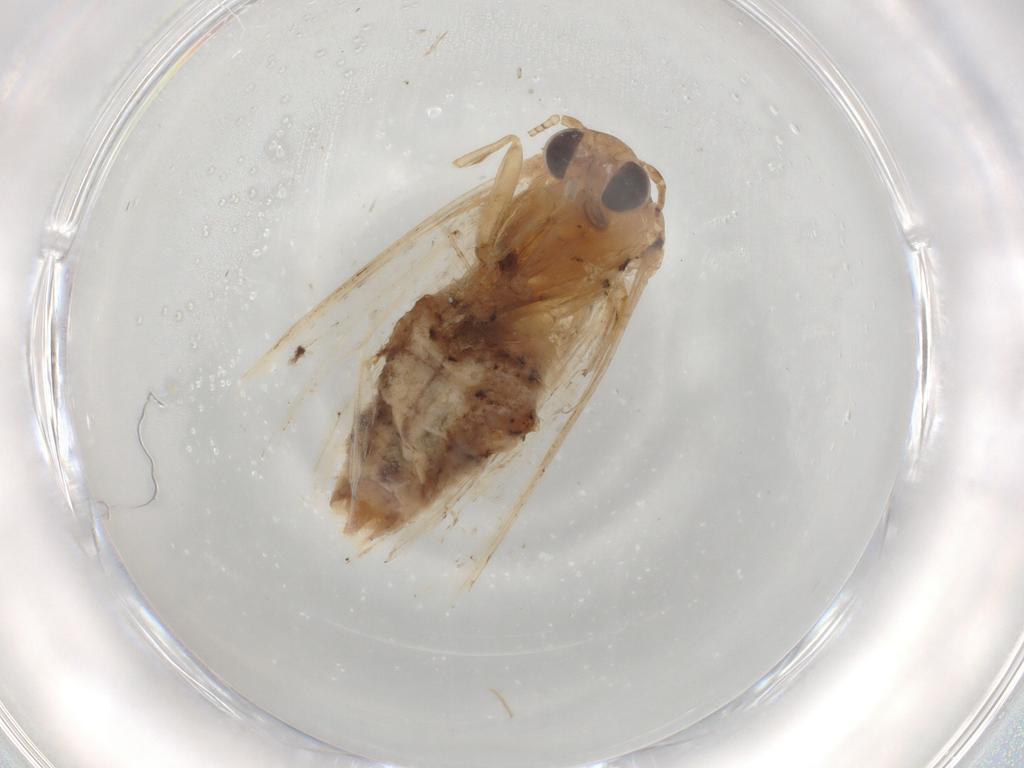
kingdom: Animalia
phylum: Arthropoda
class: Insecta
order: Lepidoptera
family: Nolidae
